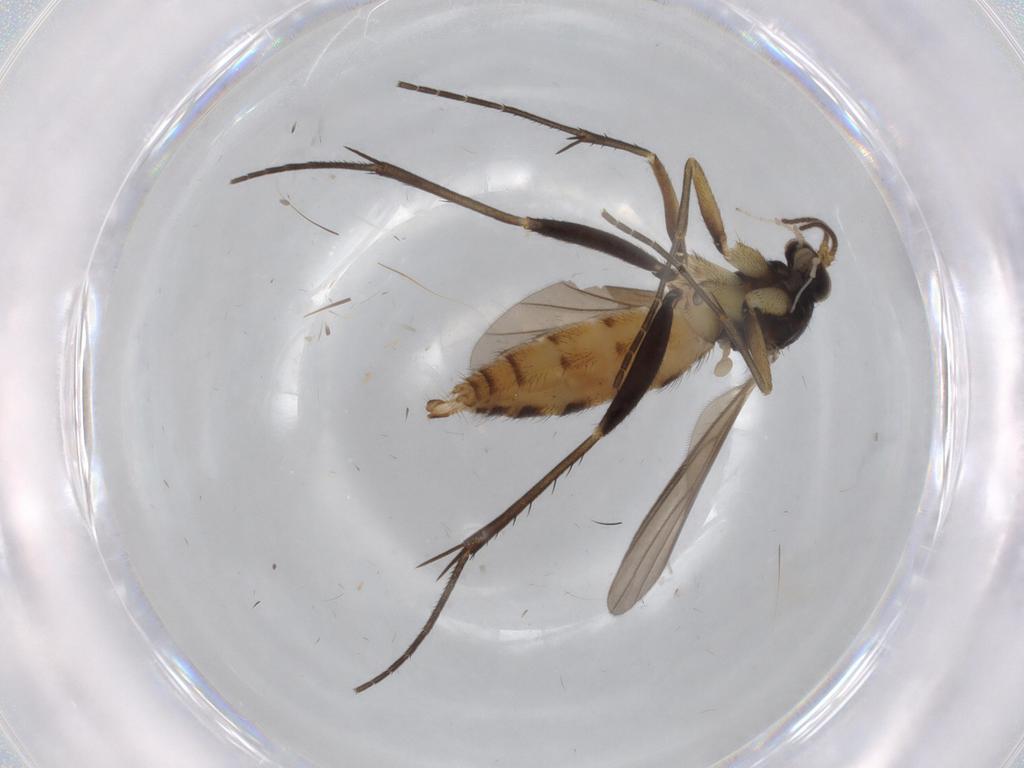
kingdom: Animalia
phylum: Arthropoda
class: Insecta
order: Diptera
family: Mycetophilidae
